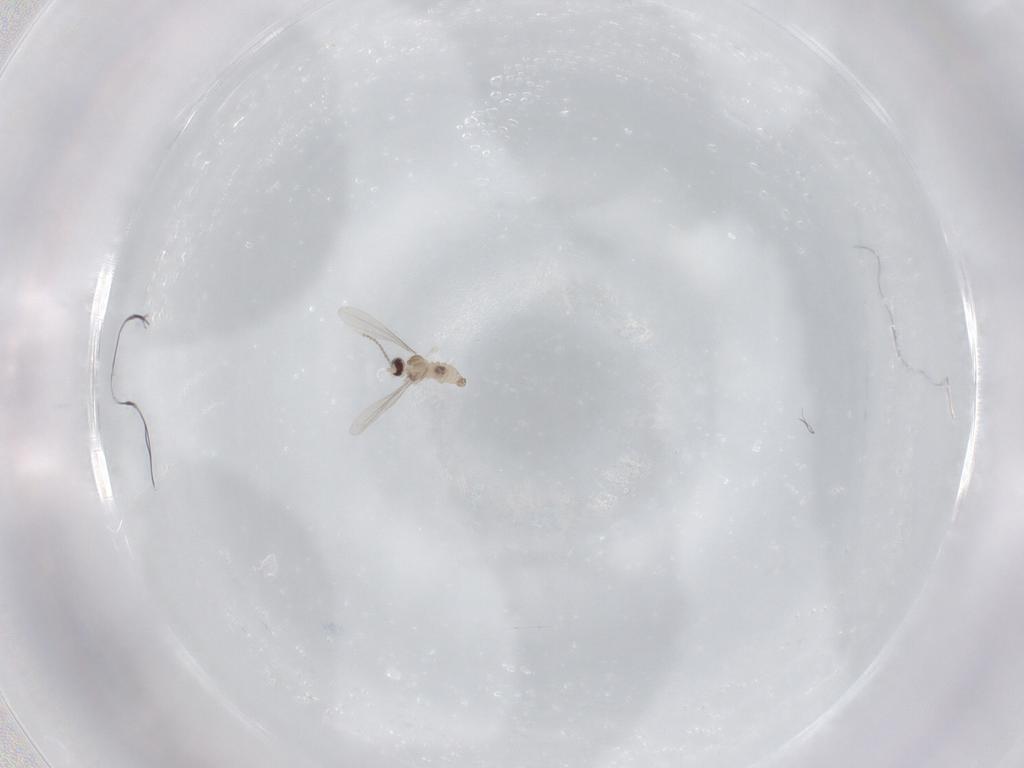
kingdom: Animalia
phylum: Arthropoda
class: Insecta
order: Diptera
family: Cecidomyiidae
